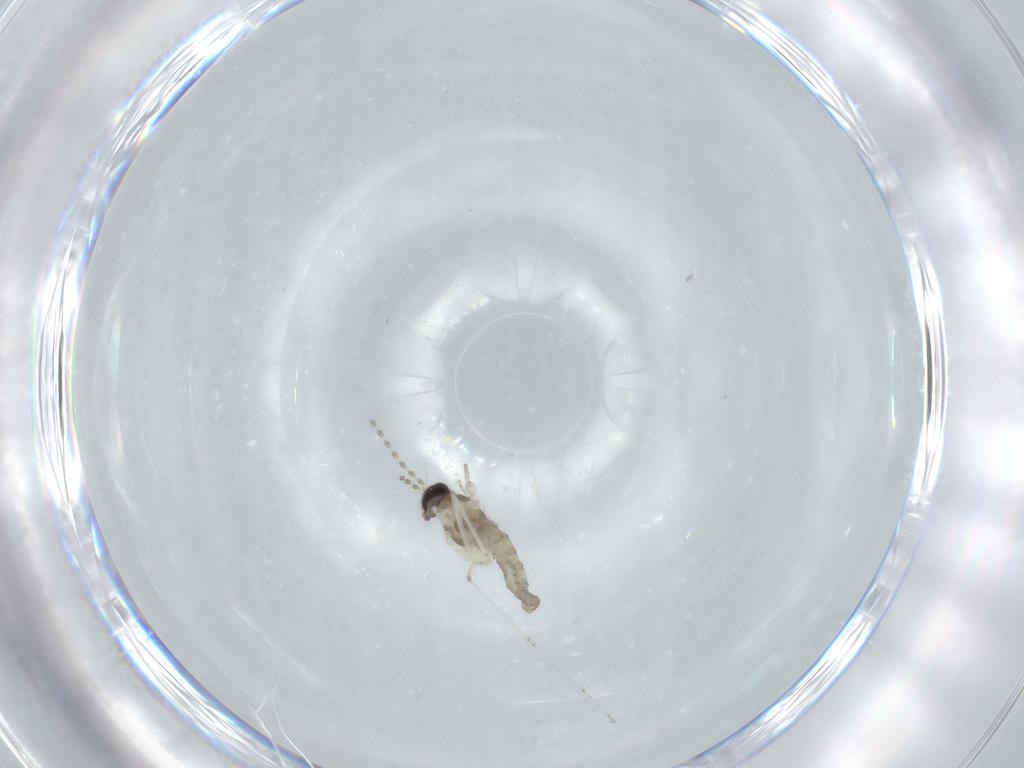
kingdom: Animalia
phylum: Arthropoda
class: Insecta
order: Diptera
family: Cecidomyiidae
